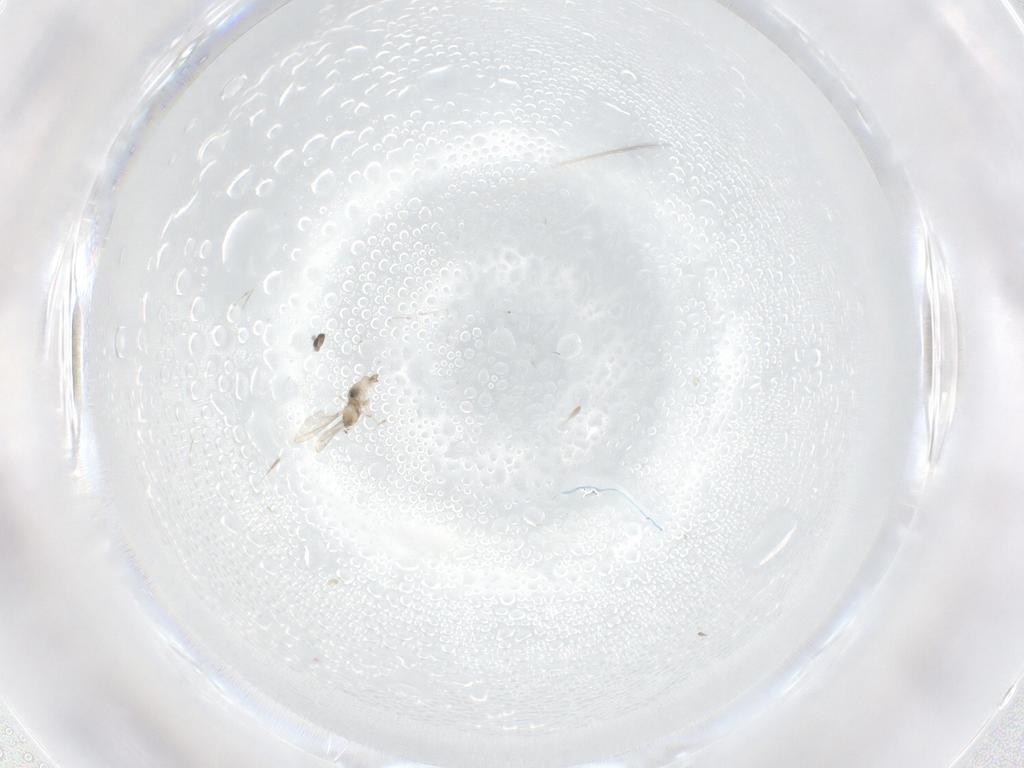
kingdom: Animalia
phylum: Arthropoda
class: Insecta
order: Diptera
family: Cecidomyiidae
